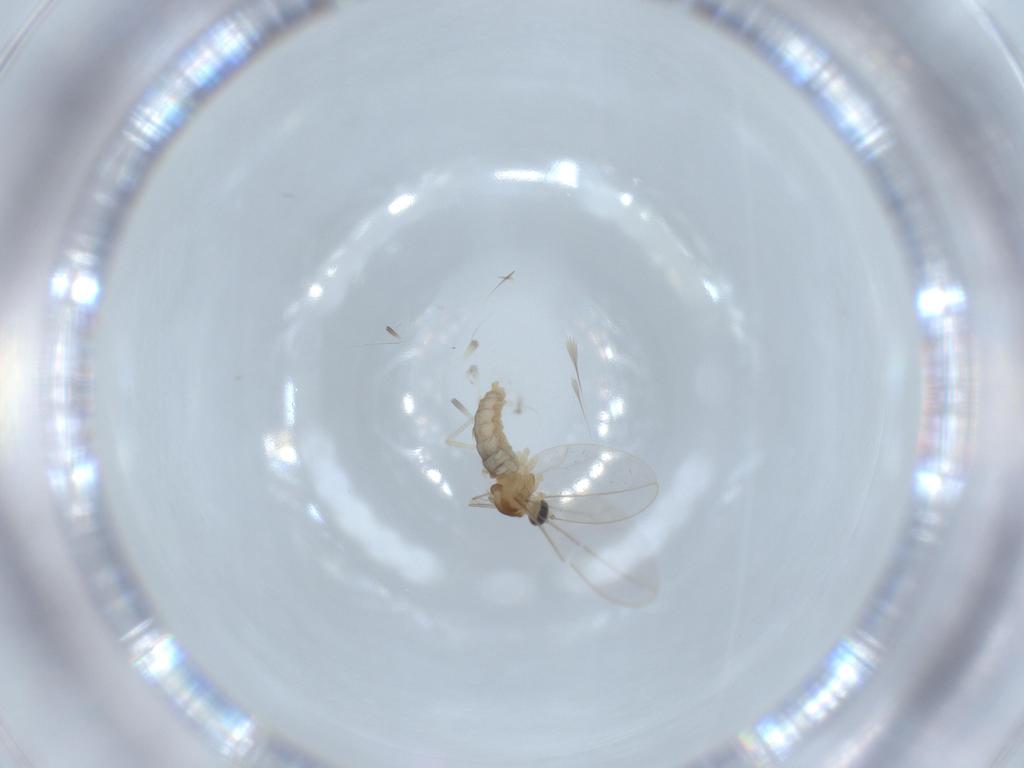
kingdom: Animalia
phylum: Arthropoda
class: Insecta
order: Diptera
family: Cecidomyiidae
